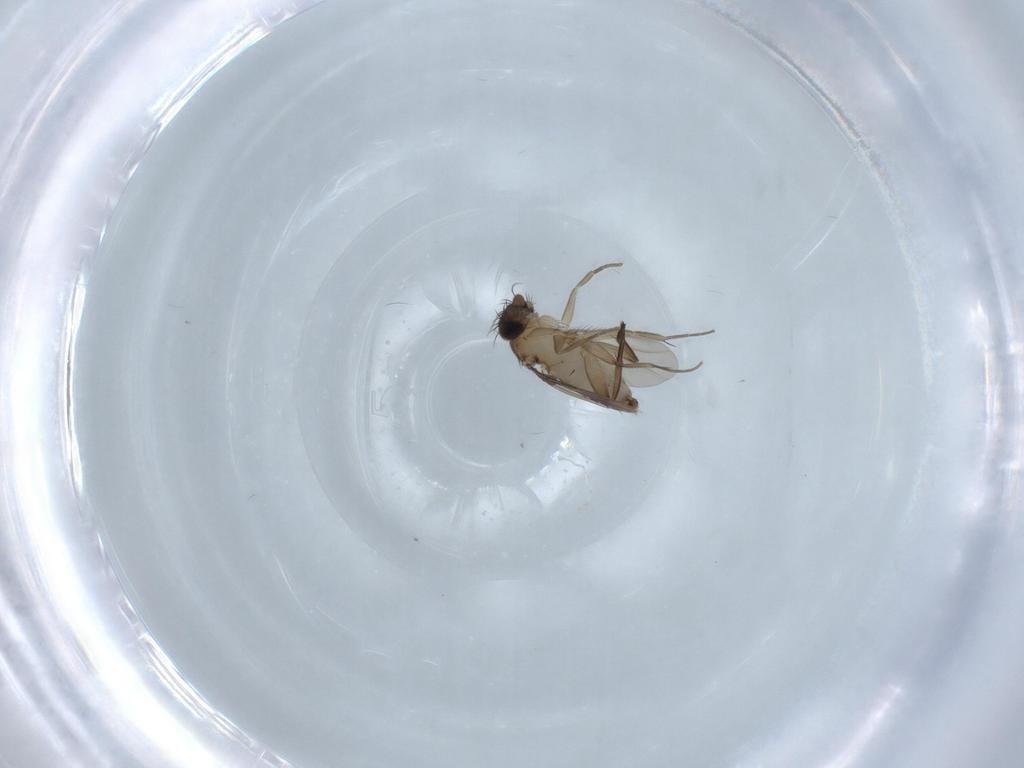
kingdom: Animalia
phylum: Arthropoda
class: Insecta
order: Diptera
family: Phoridae
